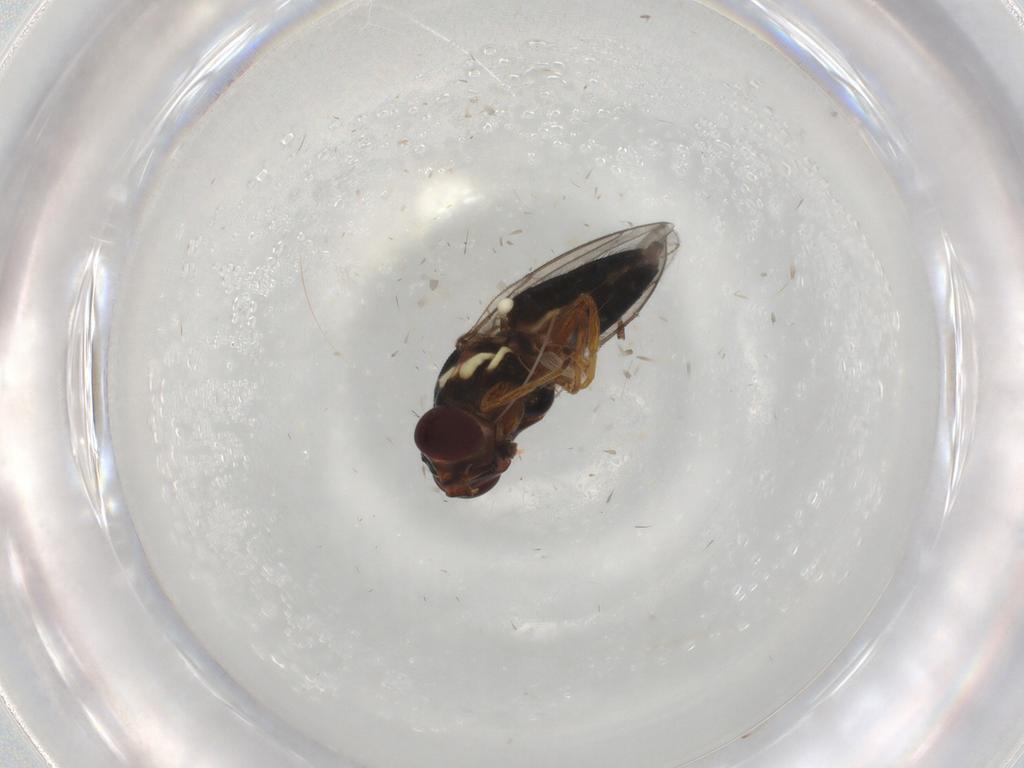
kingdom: Animalia
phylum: Arthropoda
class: Insecta
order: Diptera
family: Chloropidae
